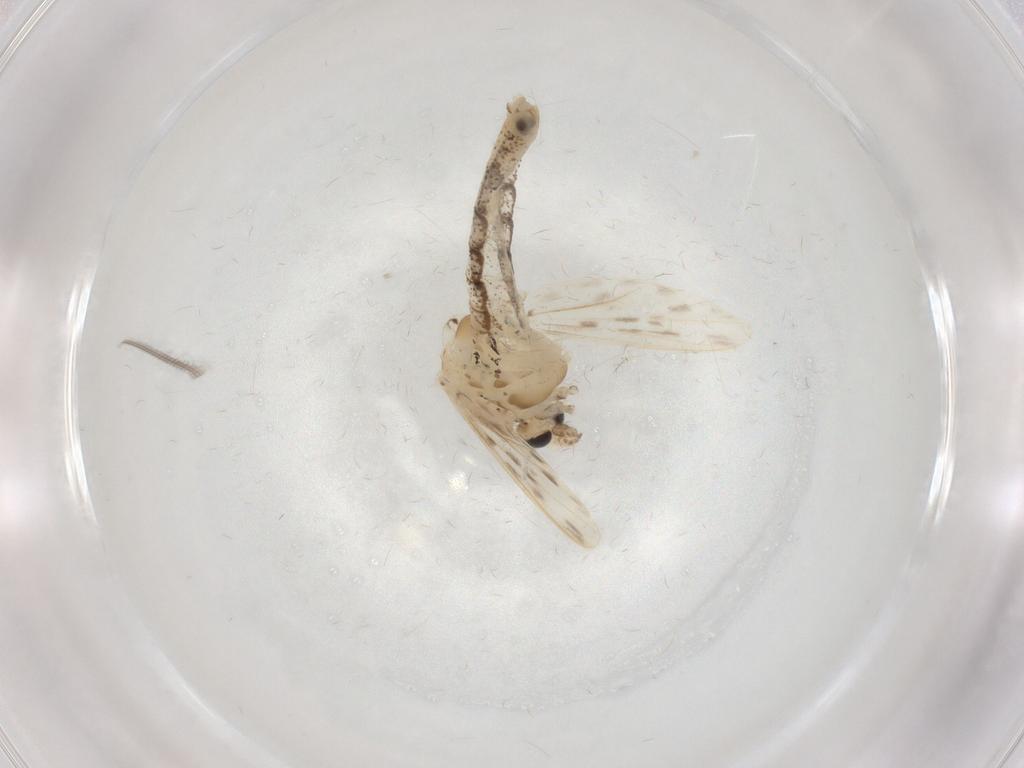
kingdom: Animalia
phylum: Arthropoda
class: Insecta
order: Diptera
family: Chaoboridae
